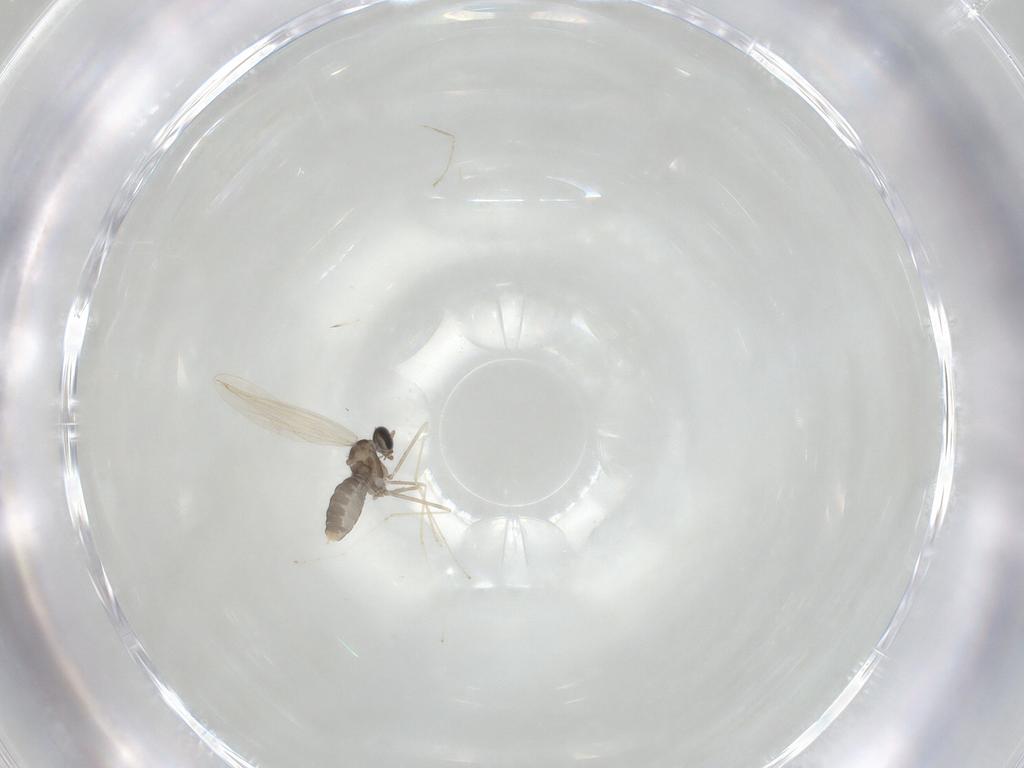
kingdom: Animalia
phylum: Arthropoda
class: Insecta
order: Diptera
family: Cecidomyiidae
